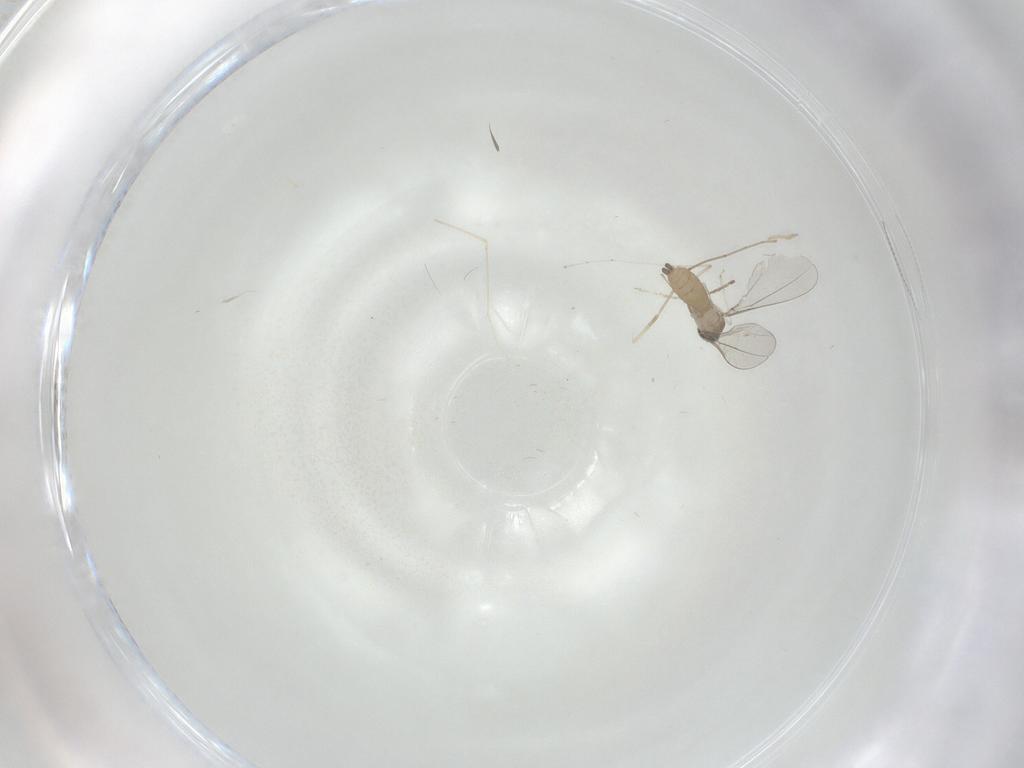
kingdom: Animalia
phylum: Arthropoda
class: Insecta
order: Diptera
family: Cecidomyiidae
